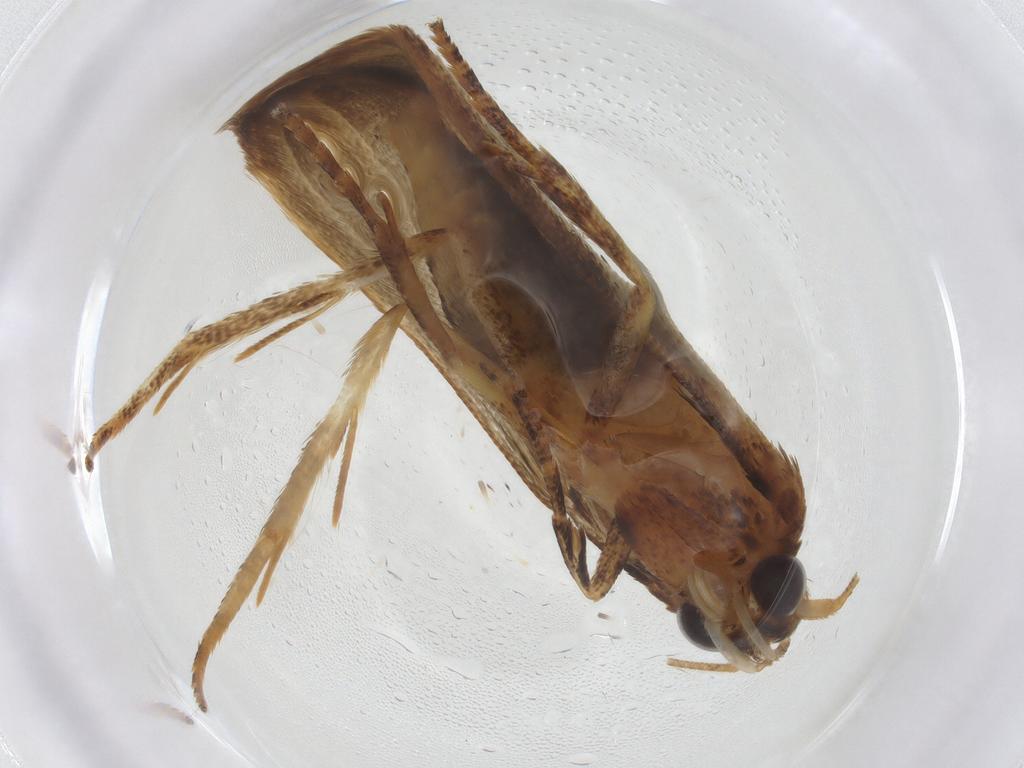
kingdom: Animalia
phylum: Arthropoda
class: Insecta
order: Lepidoptera
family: Blastobasidae
